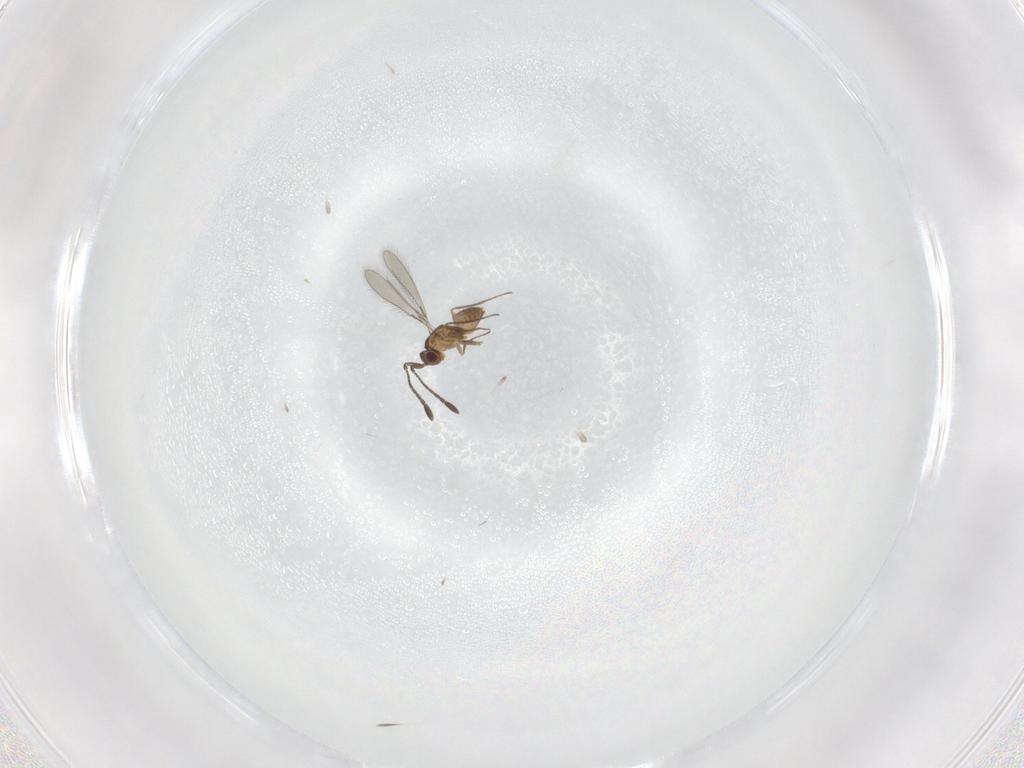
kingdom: Animalia
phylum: Arthropoda
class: Insecta
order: Hymenoptera
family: Mymaridae
